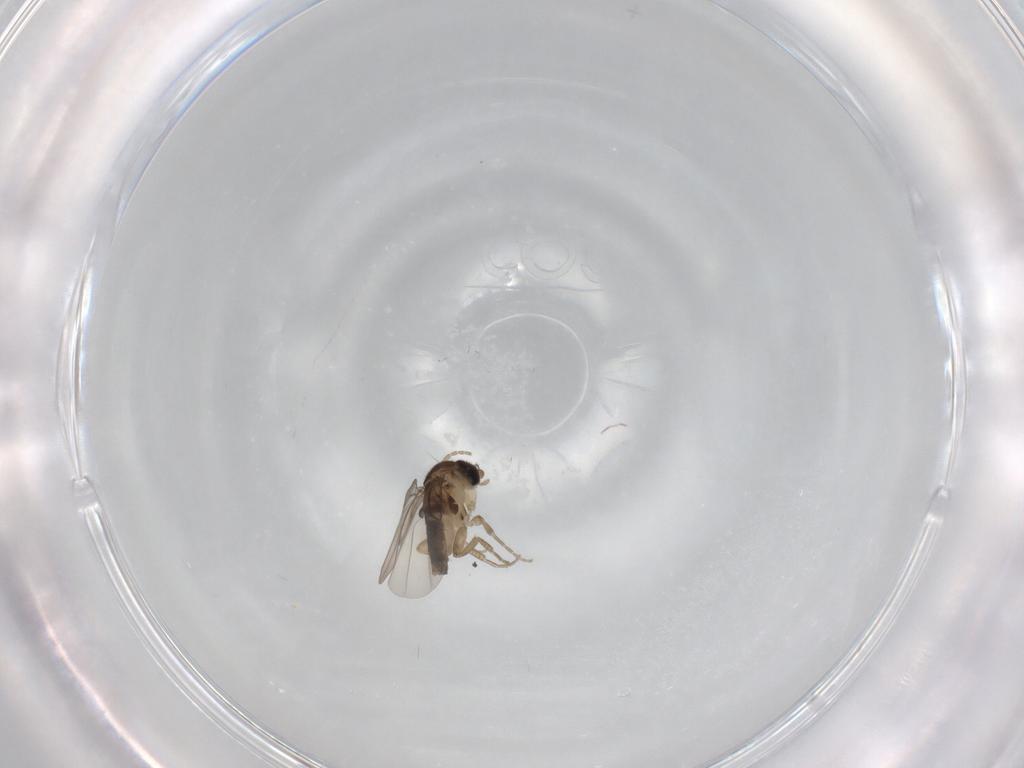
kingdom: Animalia
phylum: Arthropoda
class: Insecta
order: Diptera
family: Phoridae
